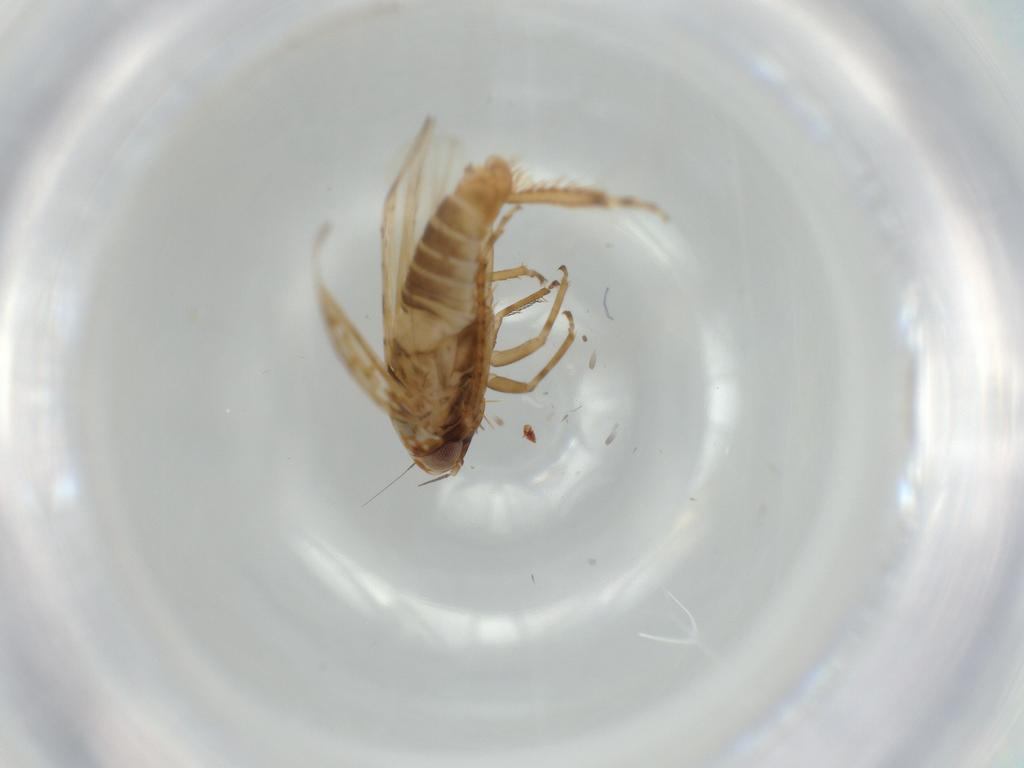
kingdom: Animalia
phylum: Arthropoda
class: Insecta
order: Hemiptera
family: Cicadellidae
